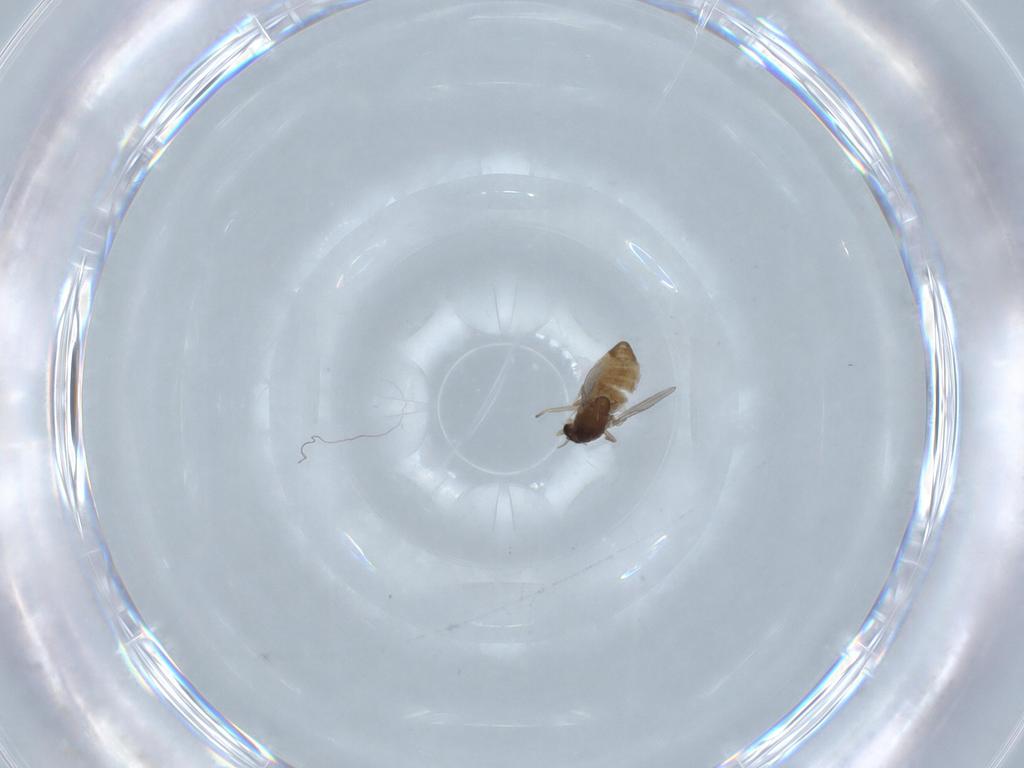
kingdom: Animalia
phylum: Arthropoda
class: Insecta
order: Diptera
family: Chironomidae
